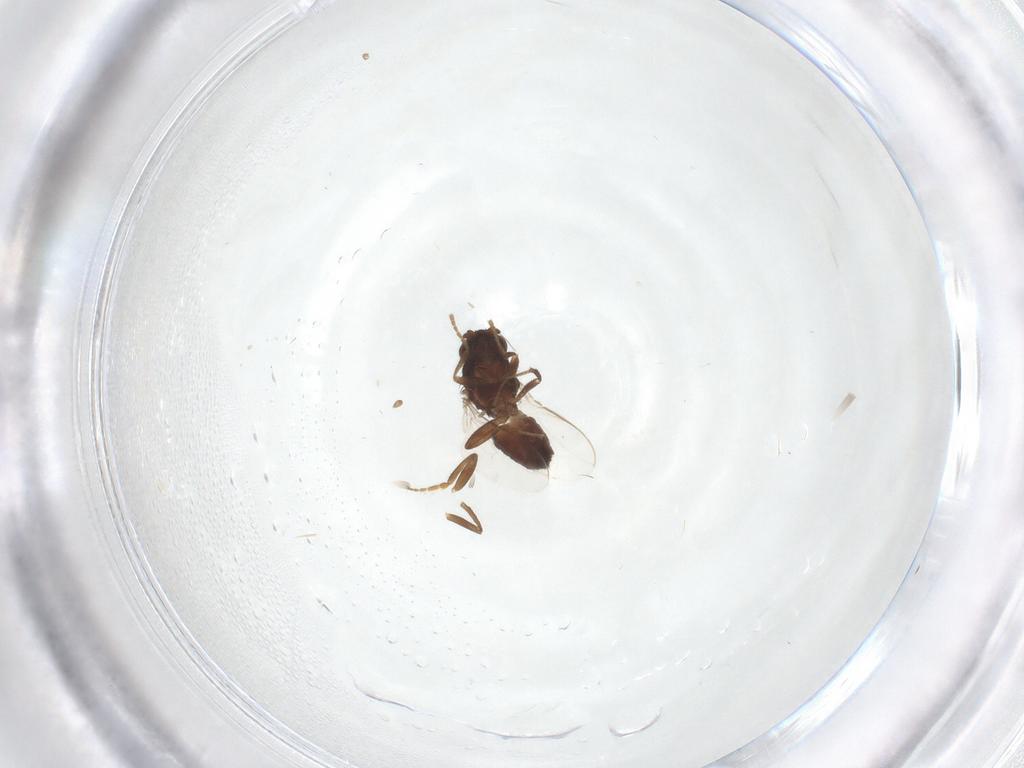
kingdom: Animalia
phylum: Arthropoda
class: Insecta
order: Diptera
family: Sphaeroceridae
